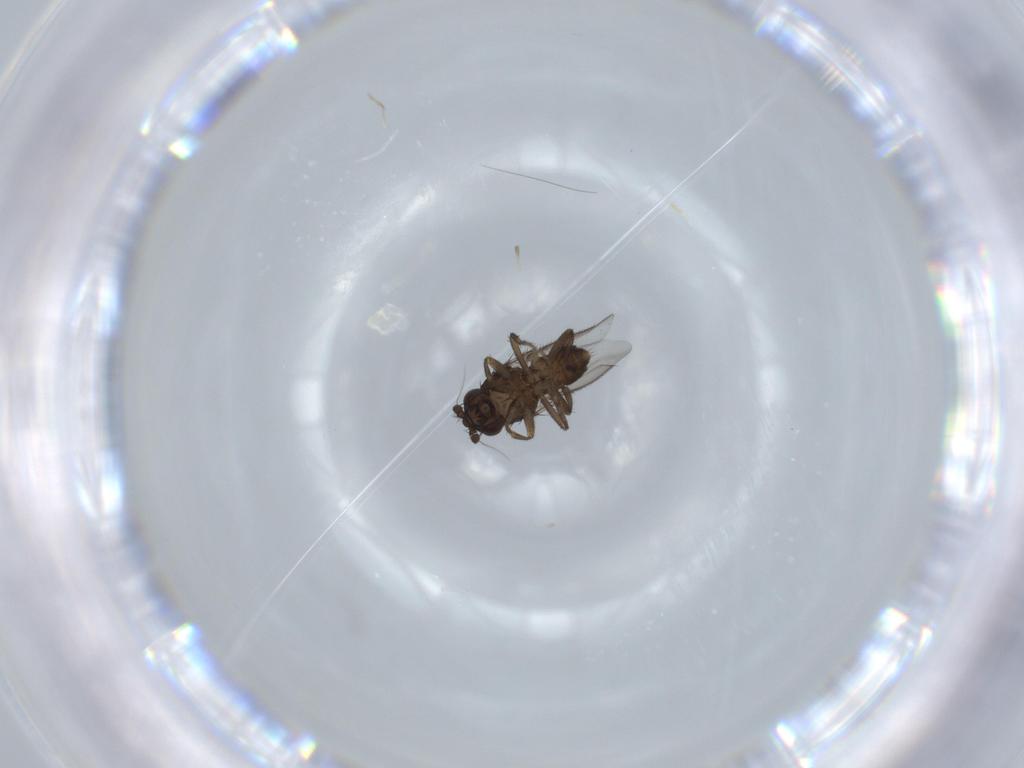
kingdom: Animalia
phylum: Arthropoda
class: Insecta
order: Diptera
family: Sphaeroceridae
